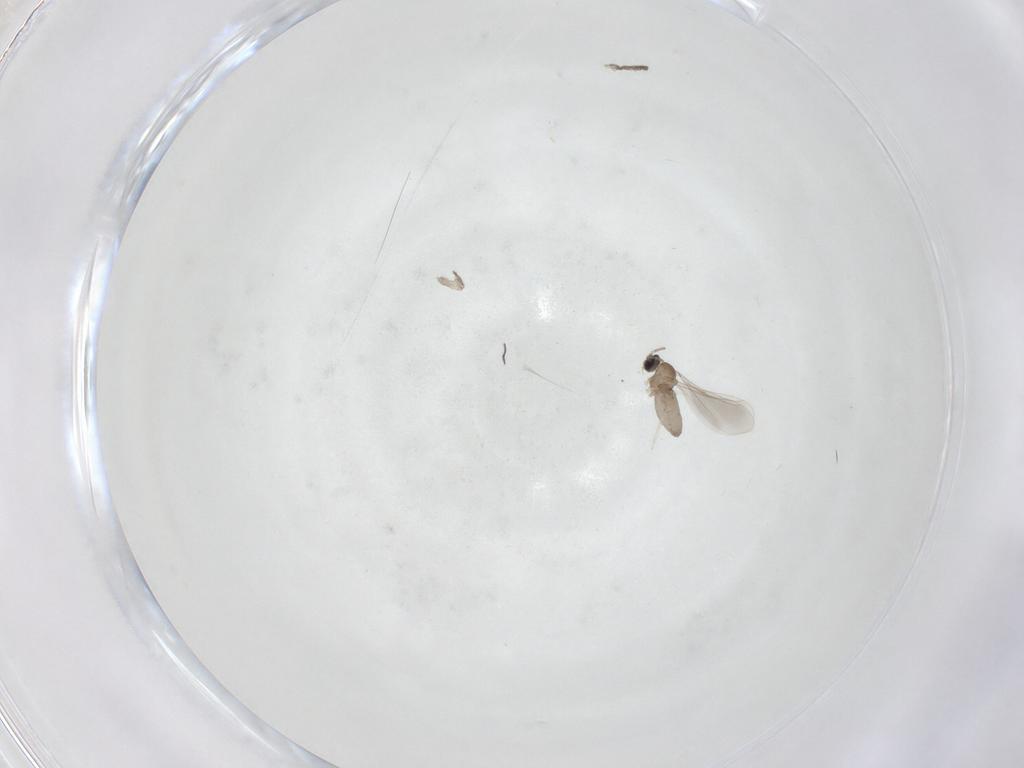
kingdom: Animalia
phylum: Arthropoda
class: Insecta
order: Diptera
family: Cecidomyiidae
